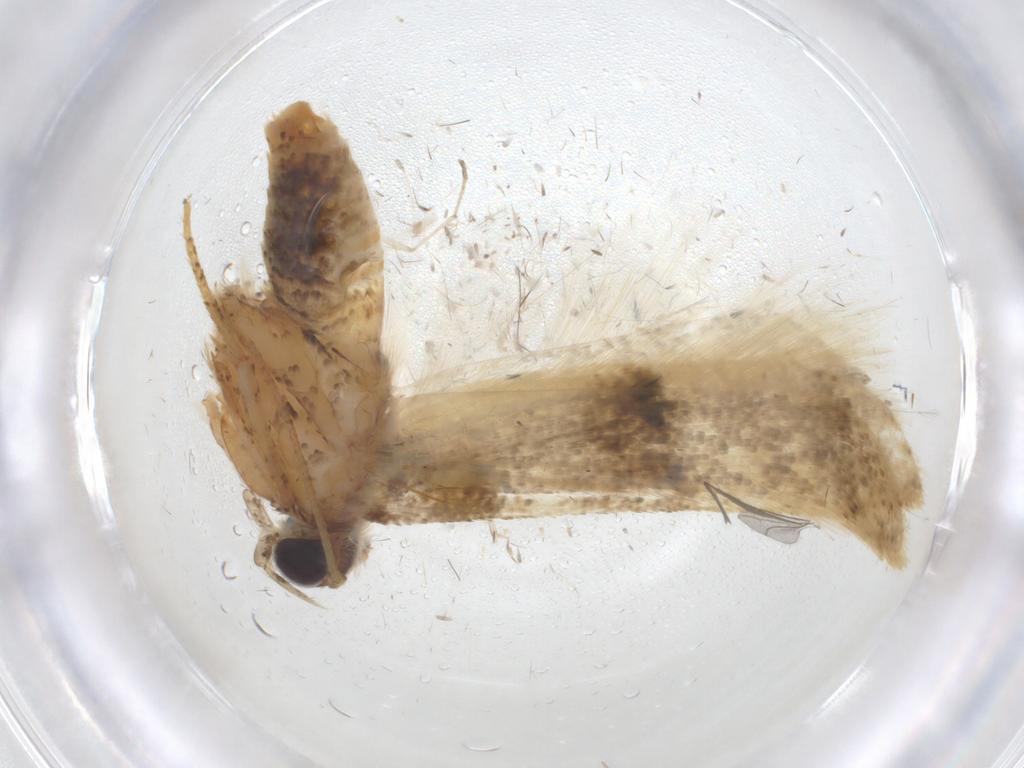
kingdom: Animalia
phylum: Arthropoda
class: Insecta
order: Lepidoptera
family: Gelechiidae
